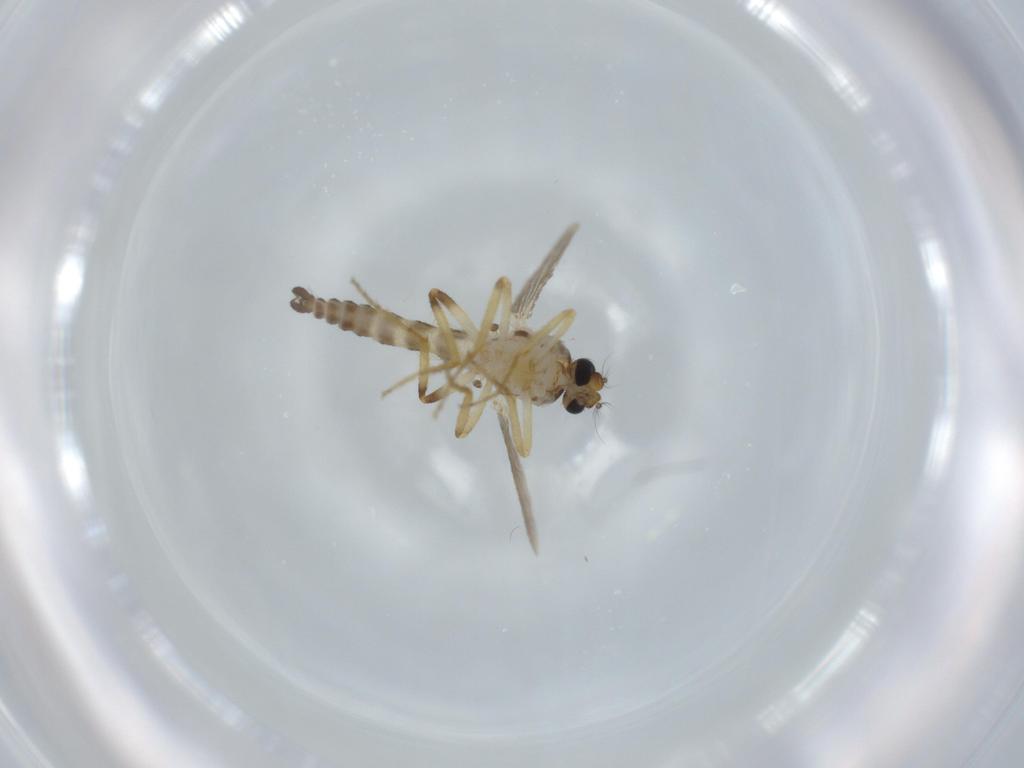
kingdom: Animalia
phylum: Arthropoda
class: Insecta
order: Diptera
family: Ceratopogonidae
